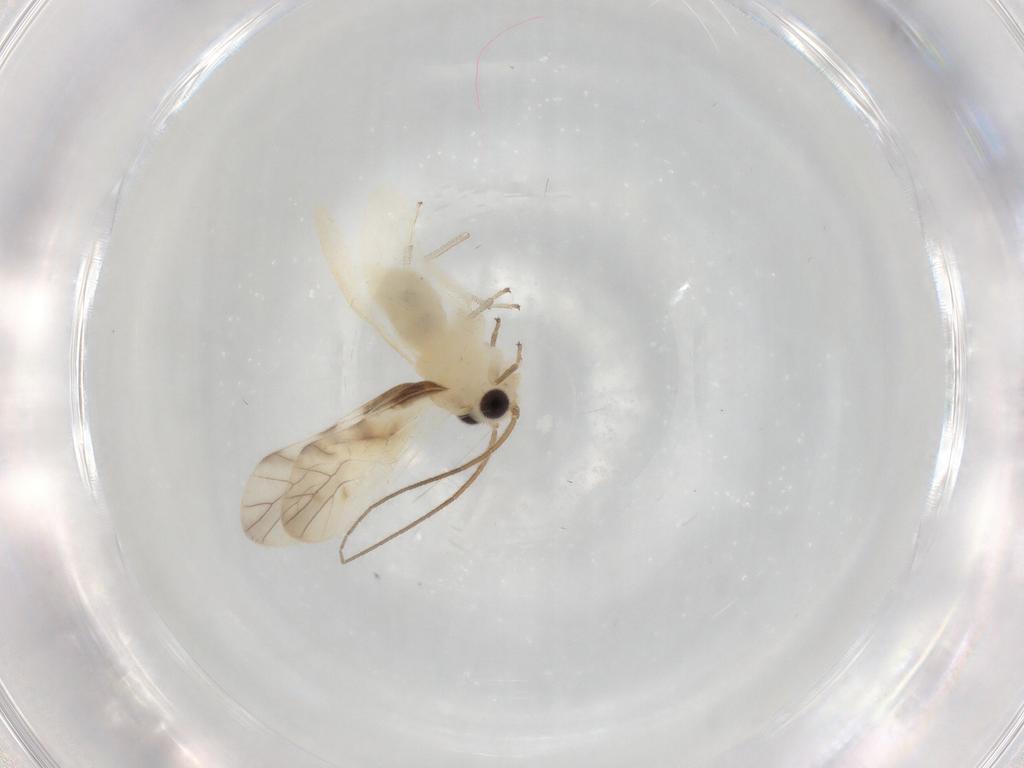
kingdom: Animalia
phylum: Arthropoda
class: Insecta
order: Psocodea
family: Caeciliusidae
